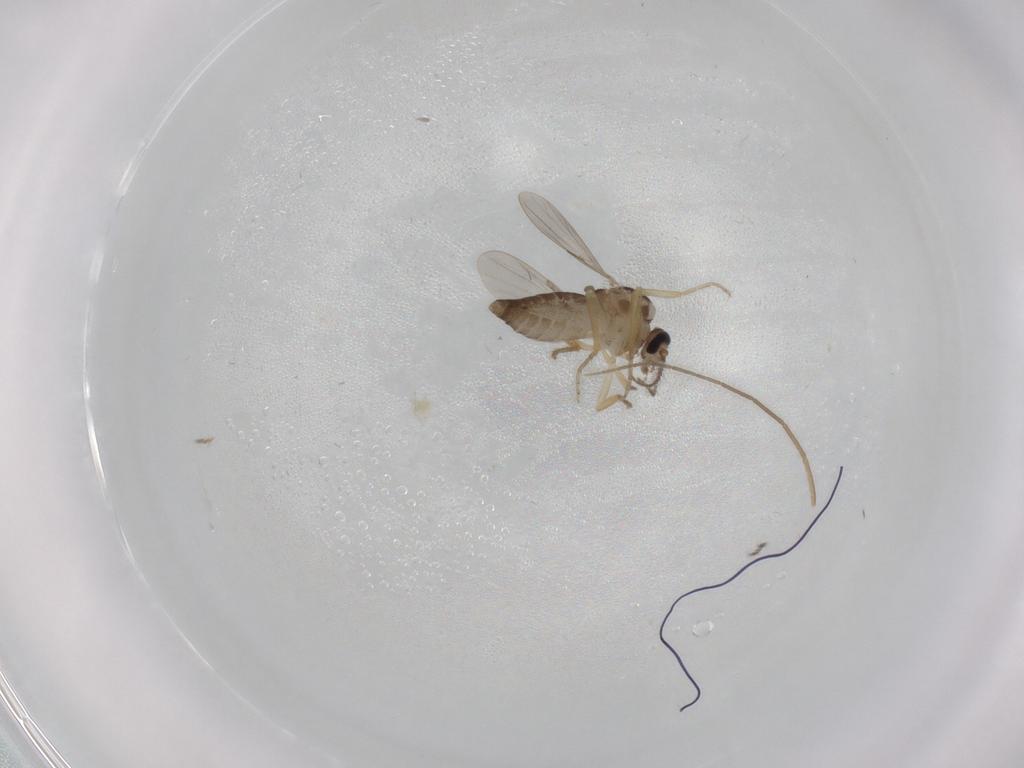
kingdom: Animalia
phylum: Arthropoda
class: Insecta
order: Diptera
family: Ceratopogonidae
